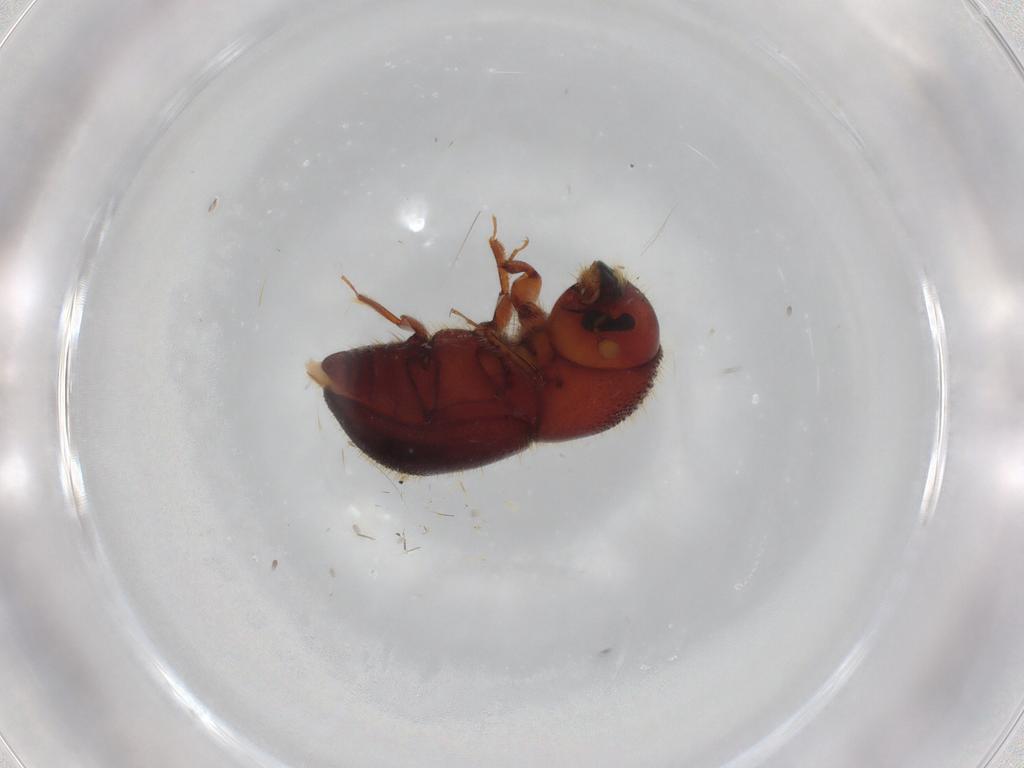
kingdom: Animalia
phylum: Arthropoda
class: Insecta
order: Coleoptera
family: Curculionidae
